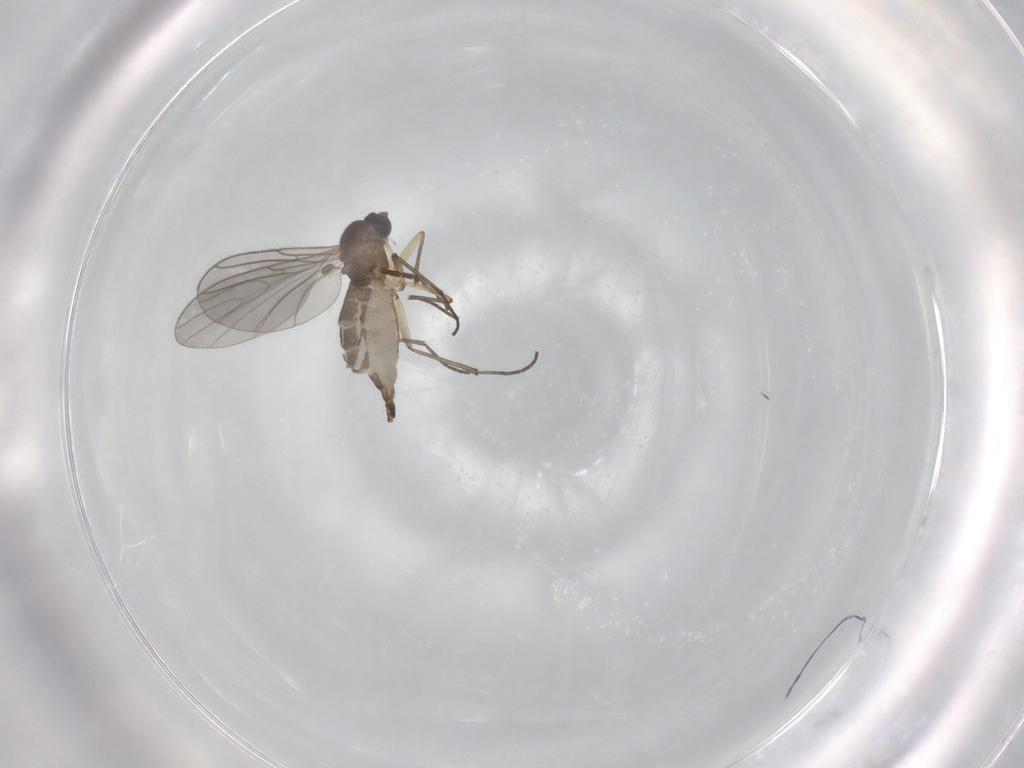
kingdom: Animalia
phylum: Arthropoda
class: Insecta
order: Diptera
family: Sciaridae
